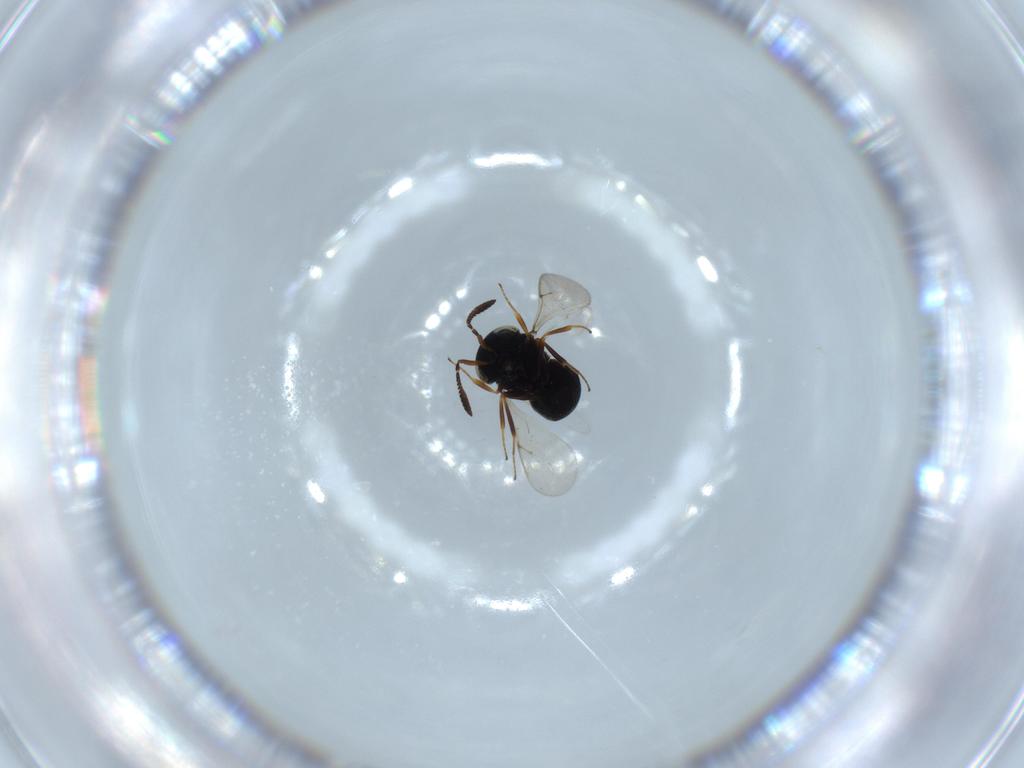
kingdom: Animalia
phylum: Arthropoda
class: Insecta
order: Hymenoptera
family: Scelionidae
